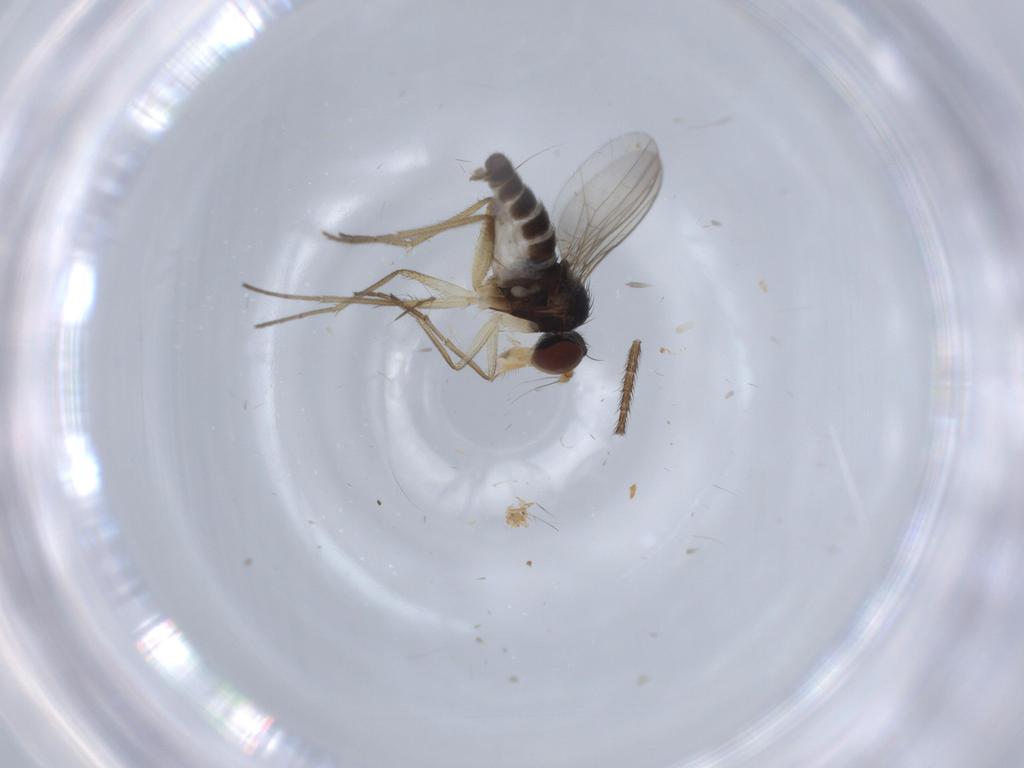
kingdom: Animalia
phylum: Arthropoda
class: Insecta
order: Diptera
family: Dolichopodidae
